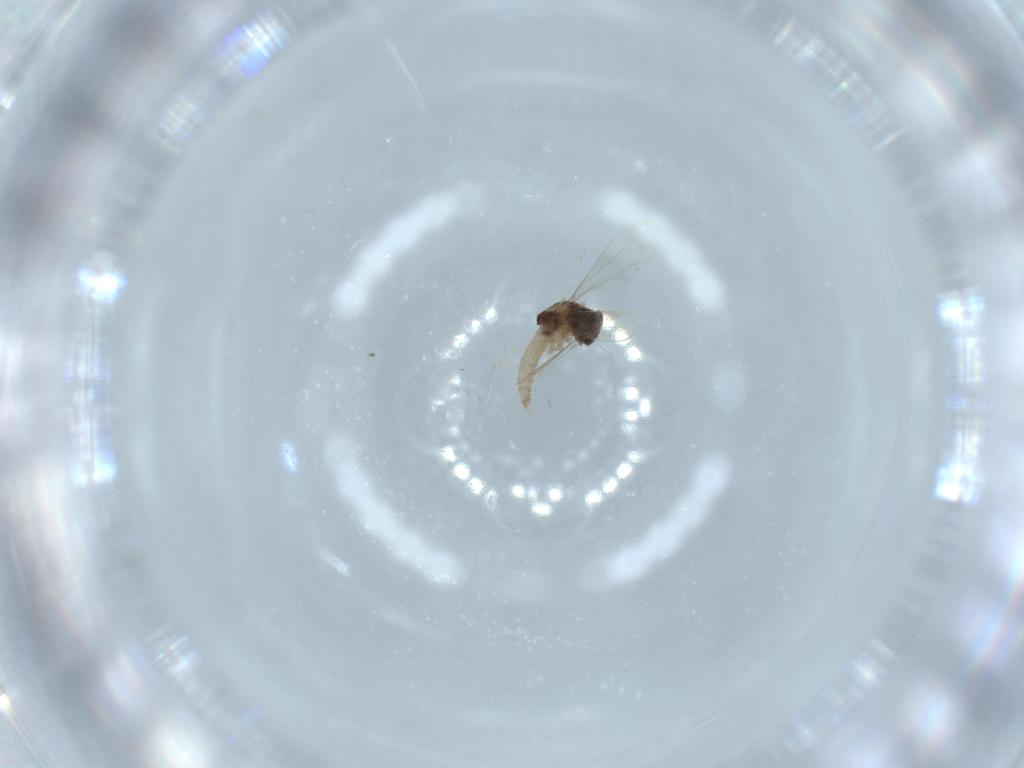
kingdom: Animalia
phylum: Arthropoda
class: Insecta
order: Diptera
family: Cecidomyiidae
